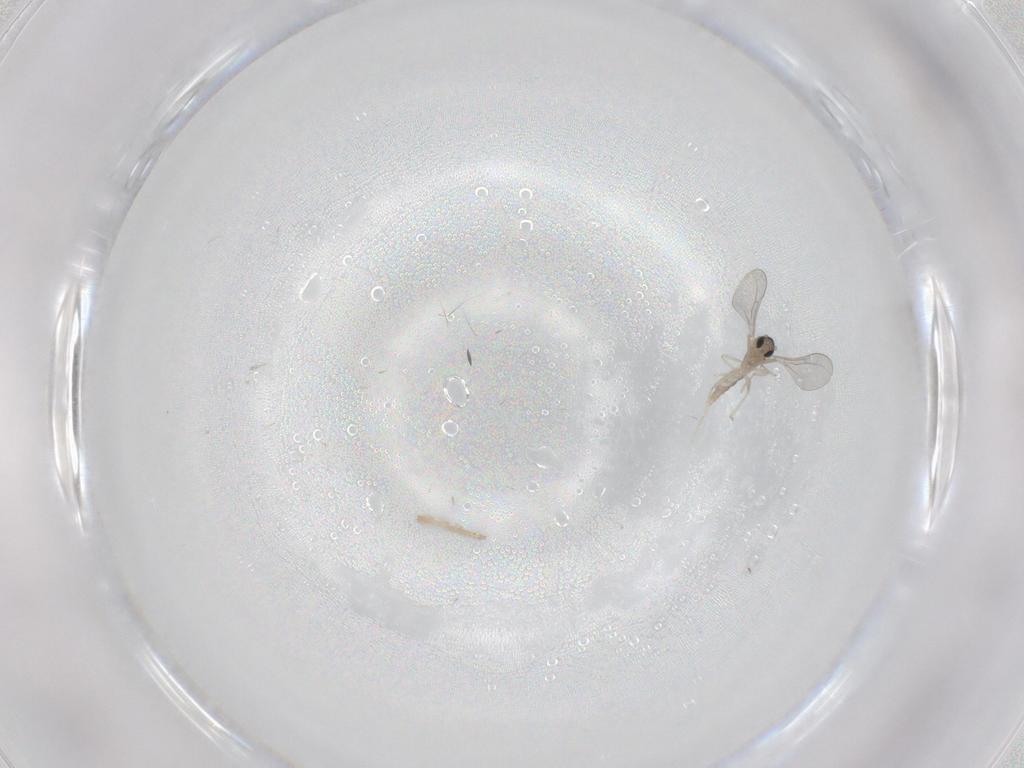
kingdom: Animalia
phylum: Arthropoda
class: Insecta
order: Diptera
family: Cecidomyiidae
